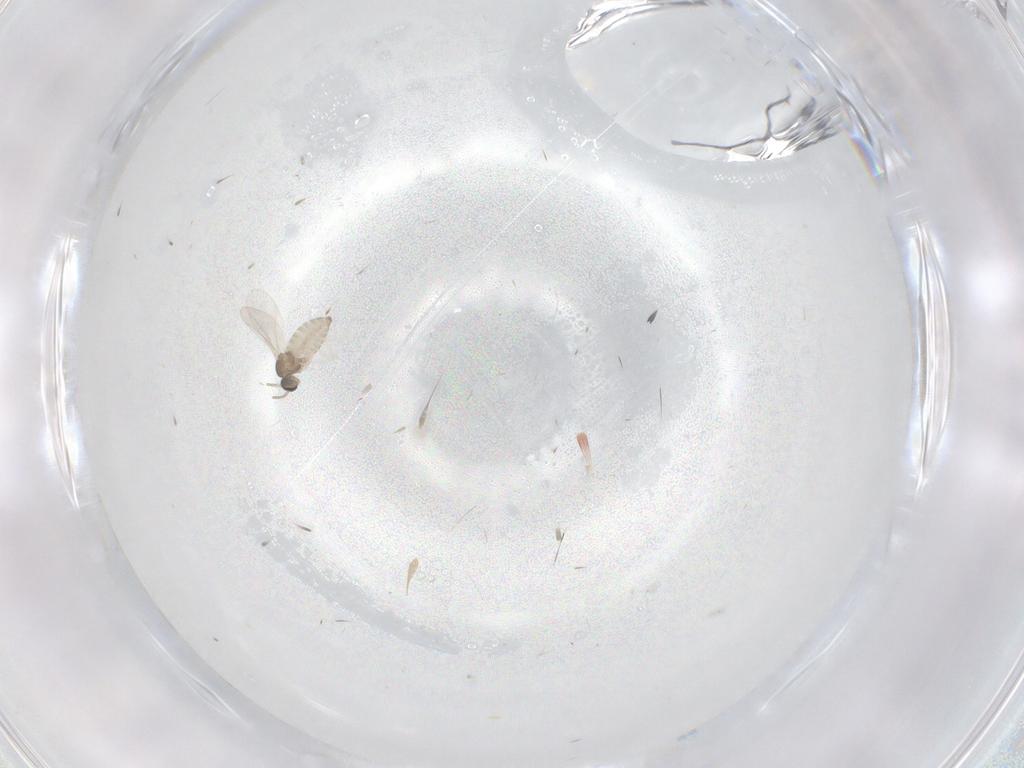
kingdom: Animalia
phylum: Arthropoda
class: Insecta
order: Diptera
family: Cecidomyiidae
